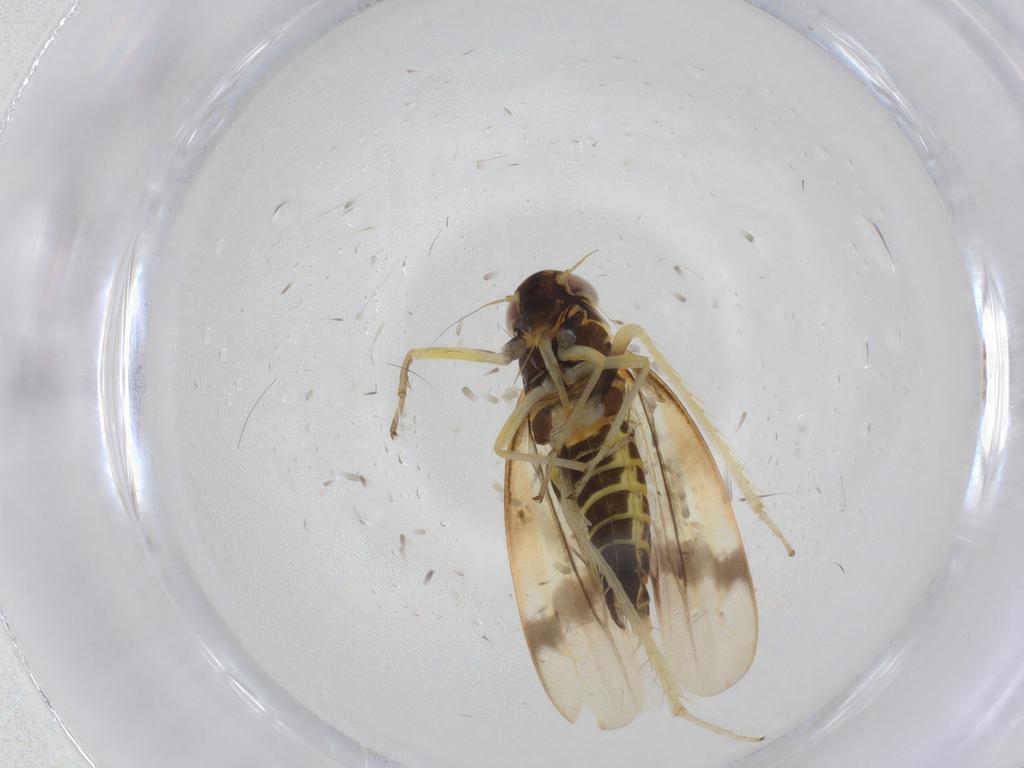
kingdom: Animalia
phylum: Arthropoda
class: Insecta
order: Hemiptera
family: Cicadellidae
